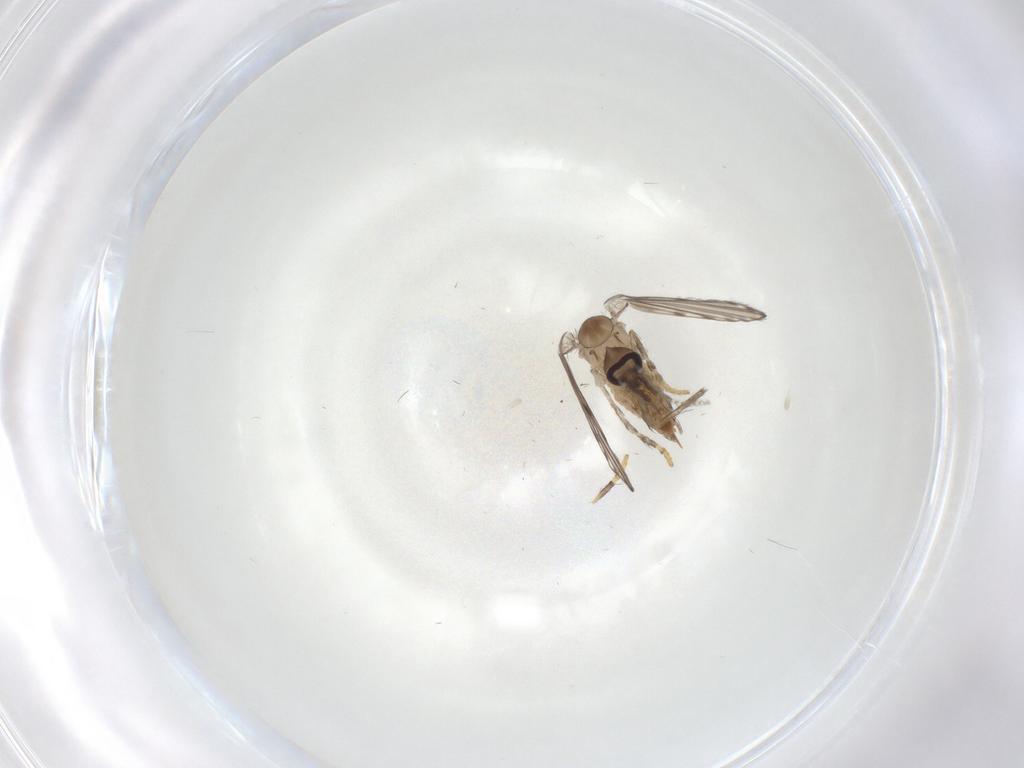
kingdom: Animalia
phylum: Arthropoda
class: Insecta
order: Diptera
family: Psychodidae
